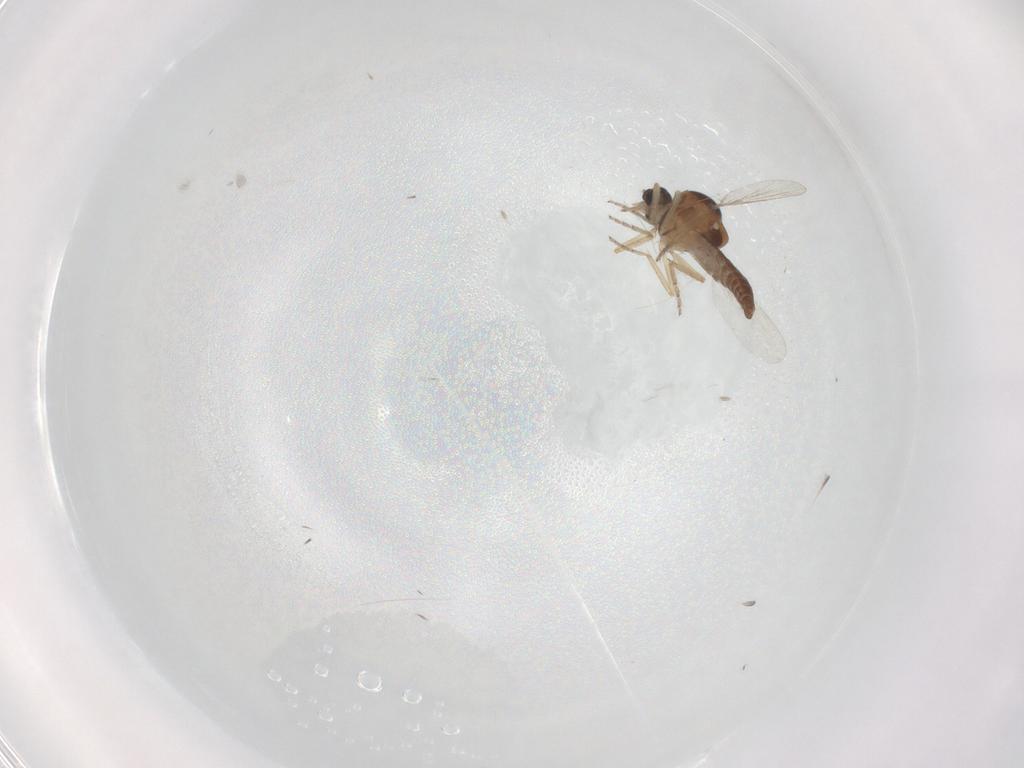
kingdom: Animalia
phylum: Arthropoda
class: Insecta
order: Diptera
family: Ceratopogonidae
